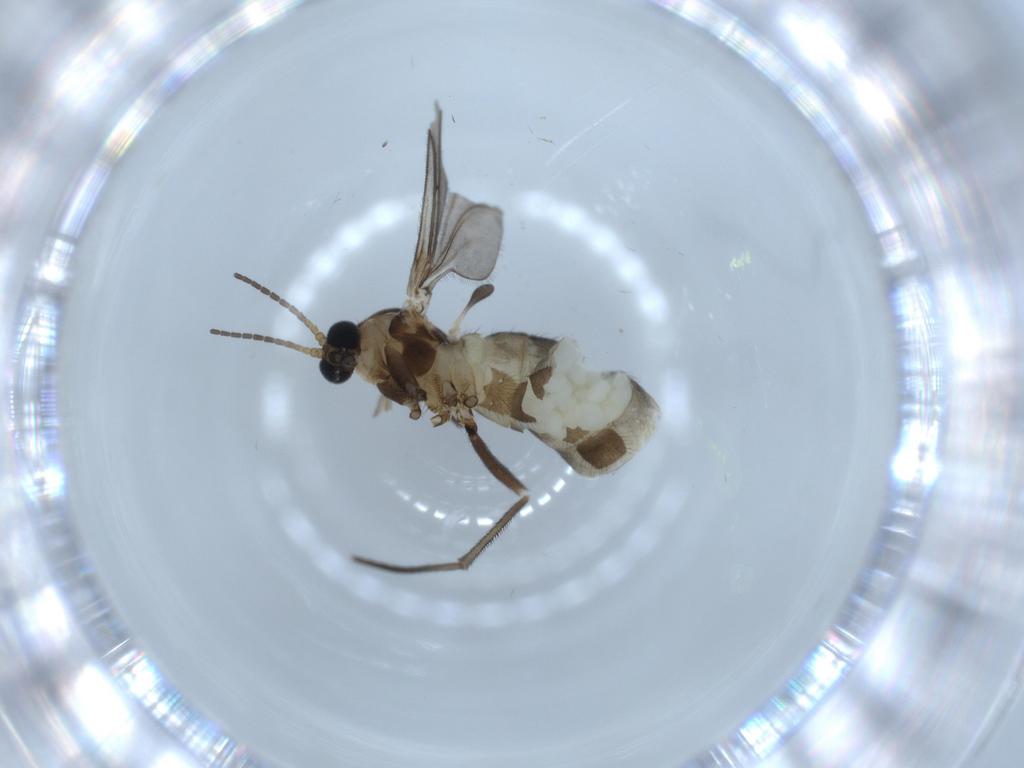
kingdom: Animalia
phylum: Arthropoda
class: Insecta
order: Diptera
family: Sciaridae
